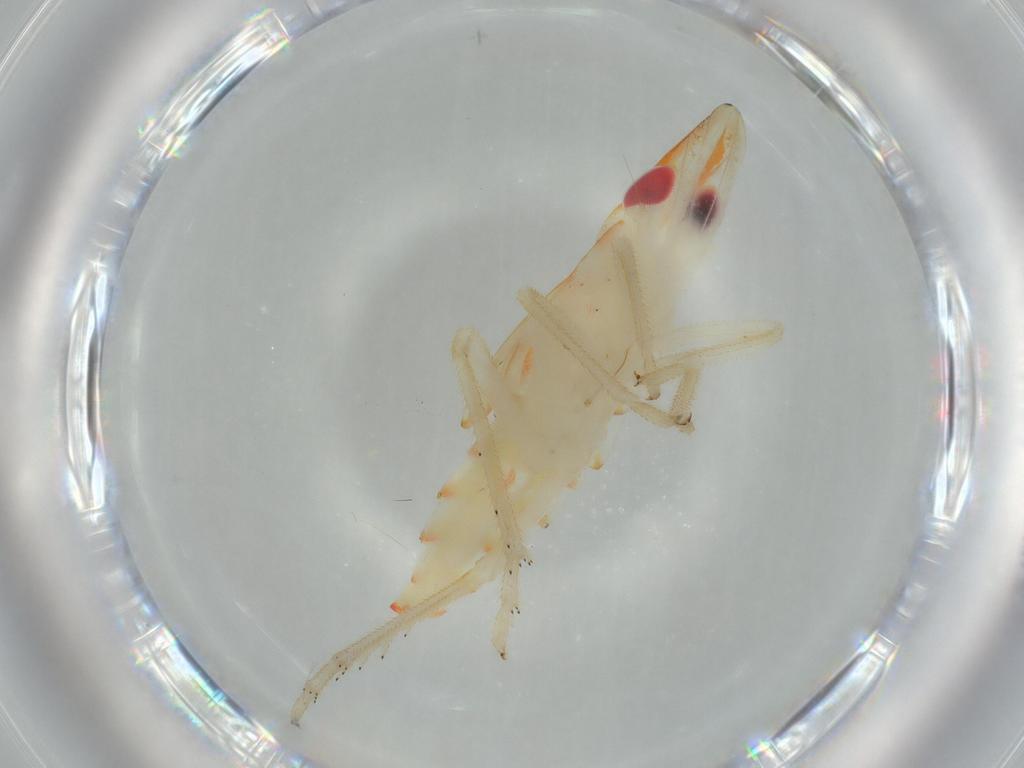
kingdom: Animalia
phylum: Arthropoda
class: Insecta
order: Hemiptera
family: Tropiduchidae
